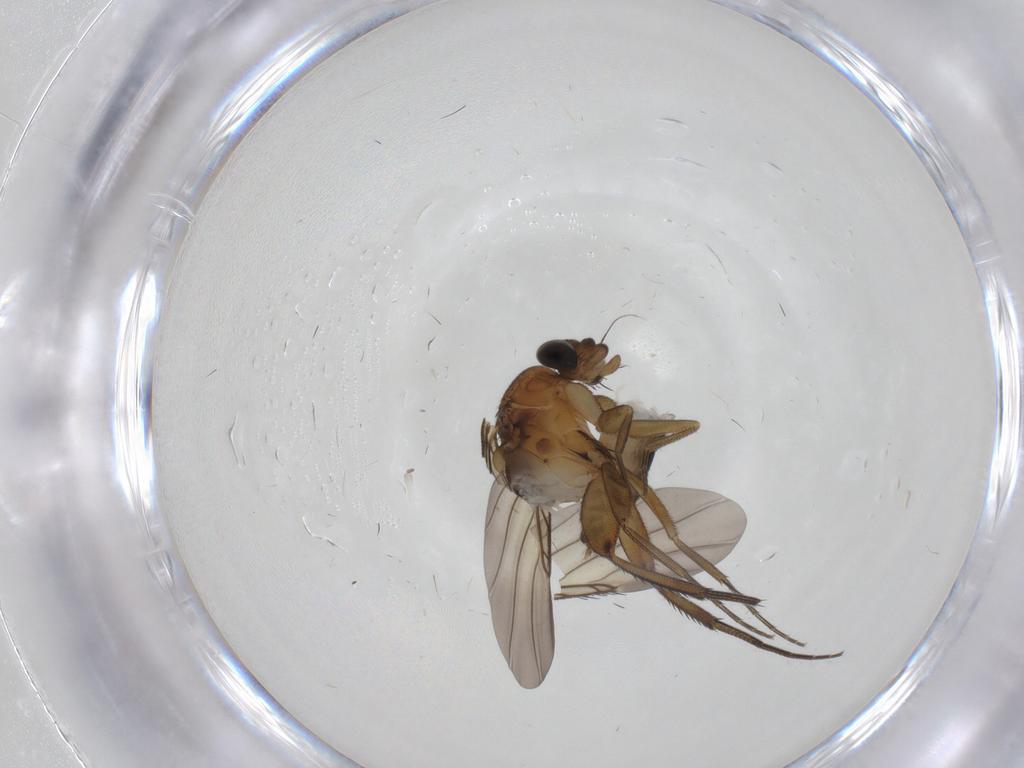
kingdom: Animalia
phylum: Arthropoda
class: Insecta
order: Diptera
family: Phoridae
